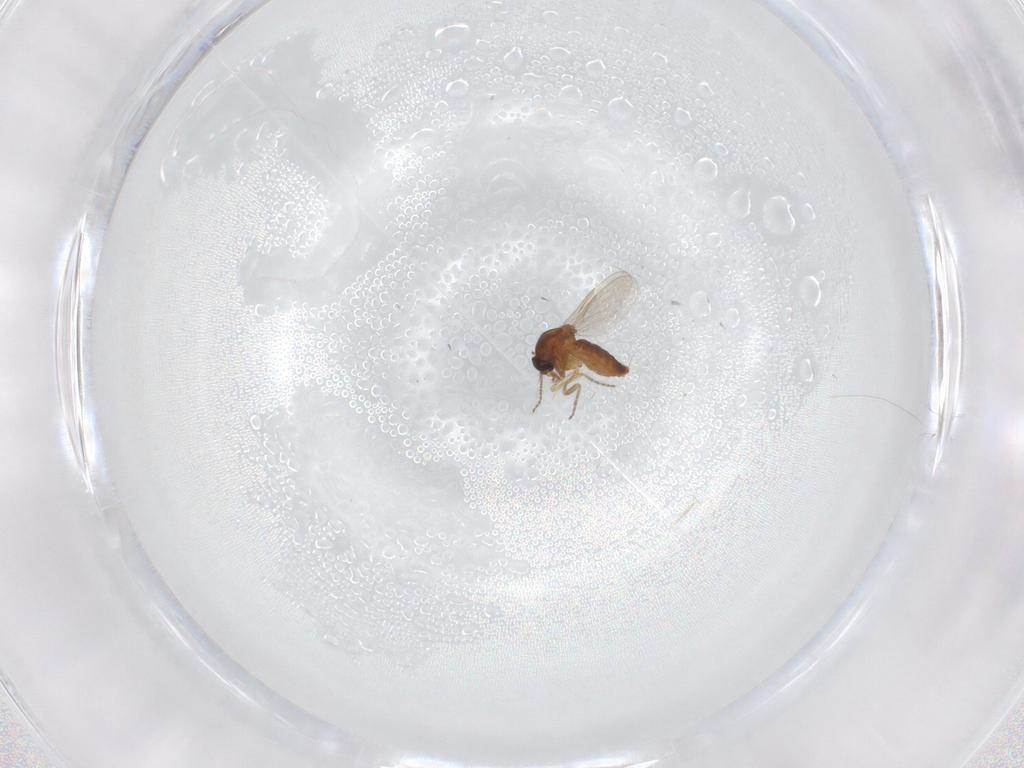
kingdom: Animalia
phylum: Arthropoda
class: Insecta
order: Diptera
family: Ceratopogonidae
